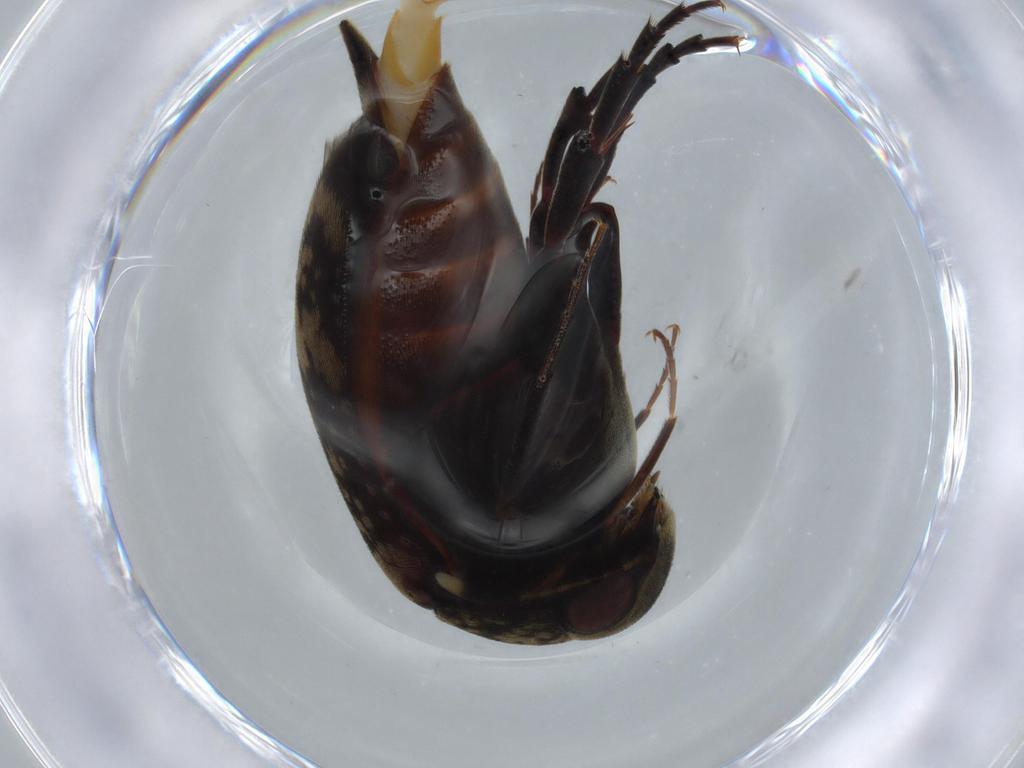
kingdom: Animalia
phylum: Arthropoda
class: Insecta
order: Coleoptera
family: Mordellidae
